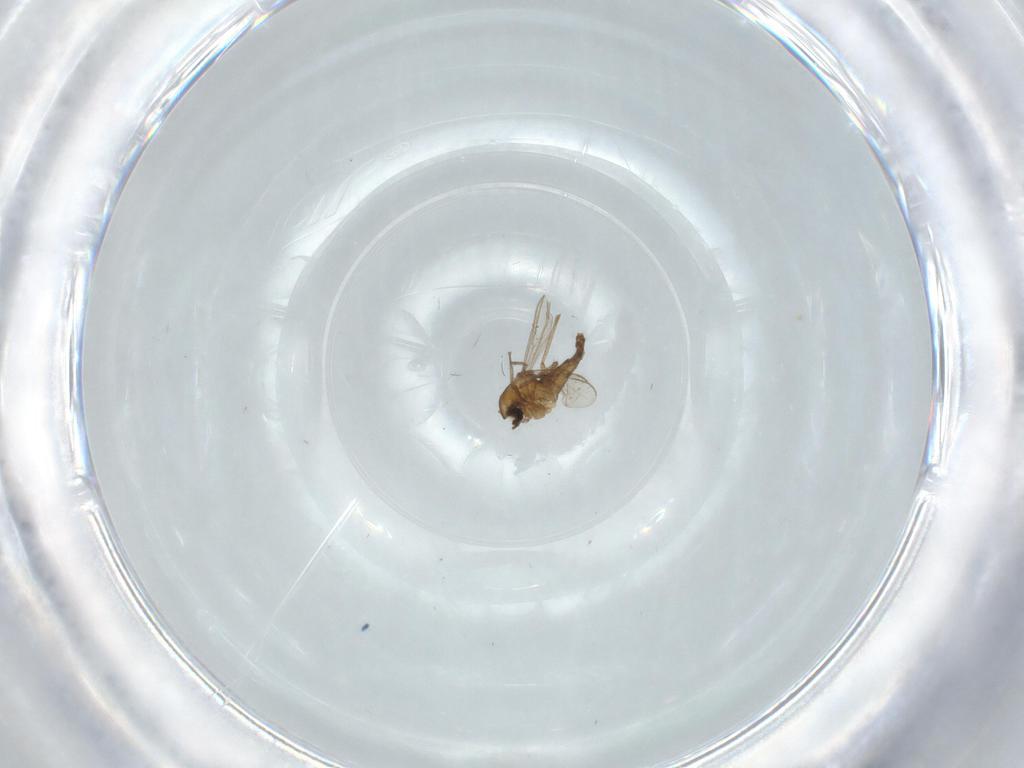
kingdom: Animalia
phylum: Arthropoda
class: Insecta
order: Diptera
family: Chironomidae
